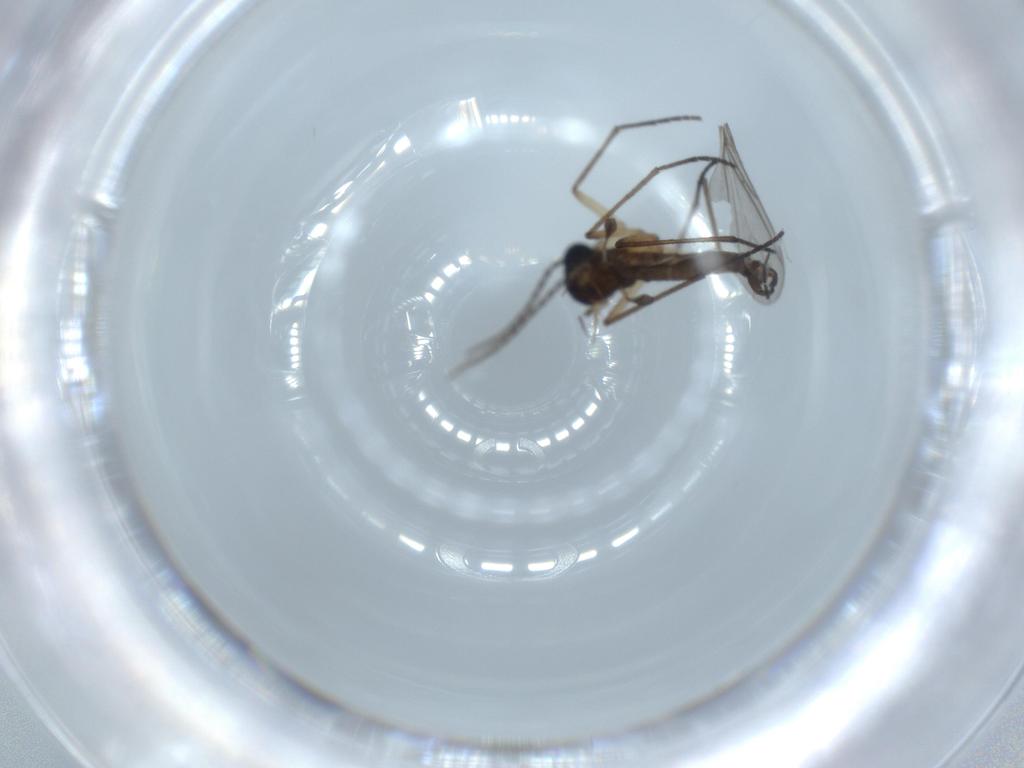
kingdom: Animalia
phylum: Arthropoda
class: Insecta
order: Diptera
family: Sciaridae
